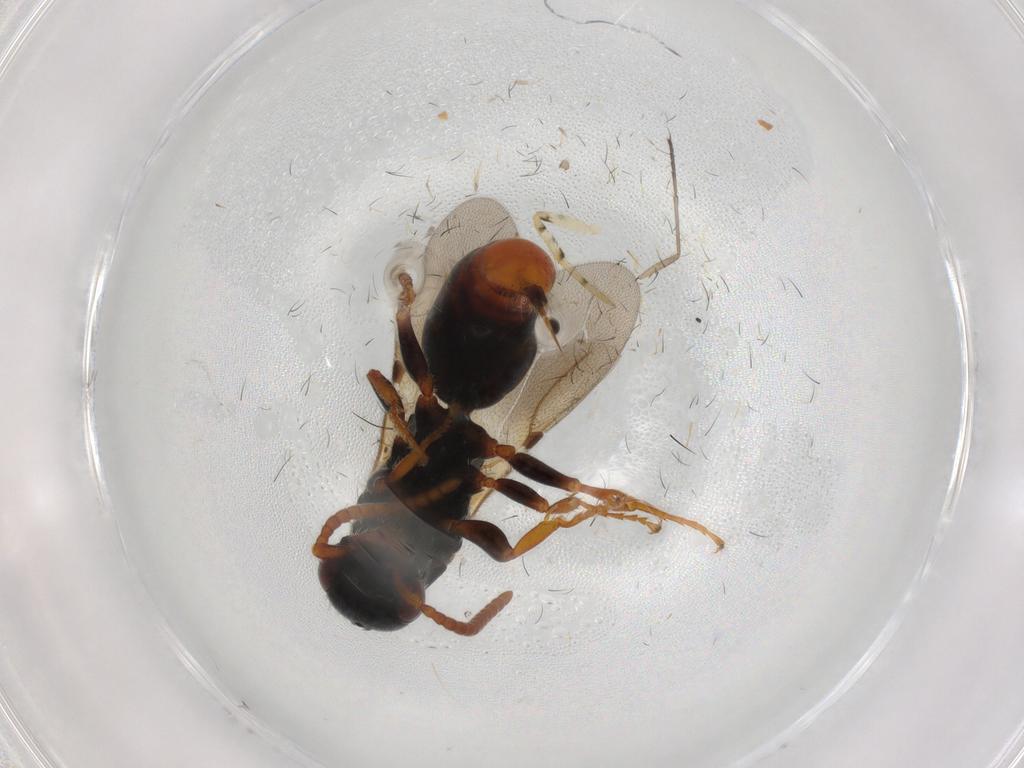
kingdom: Animalia
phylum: Arthropoda
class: Insecta
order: Hymenoptera
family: Bethylidae
